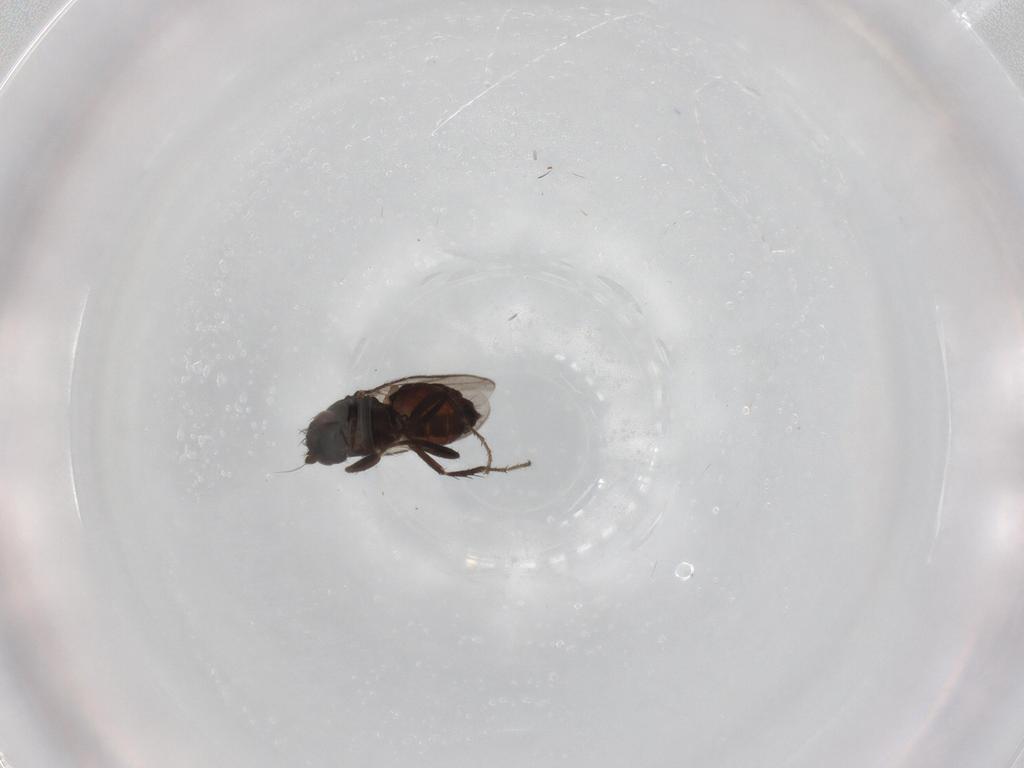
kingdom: Animalia
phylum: Arthropoda
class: Insecta
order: Diptera
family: Sphaeroceridae
